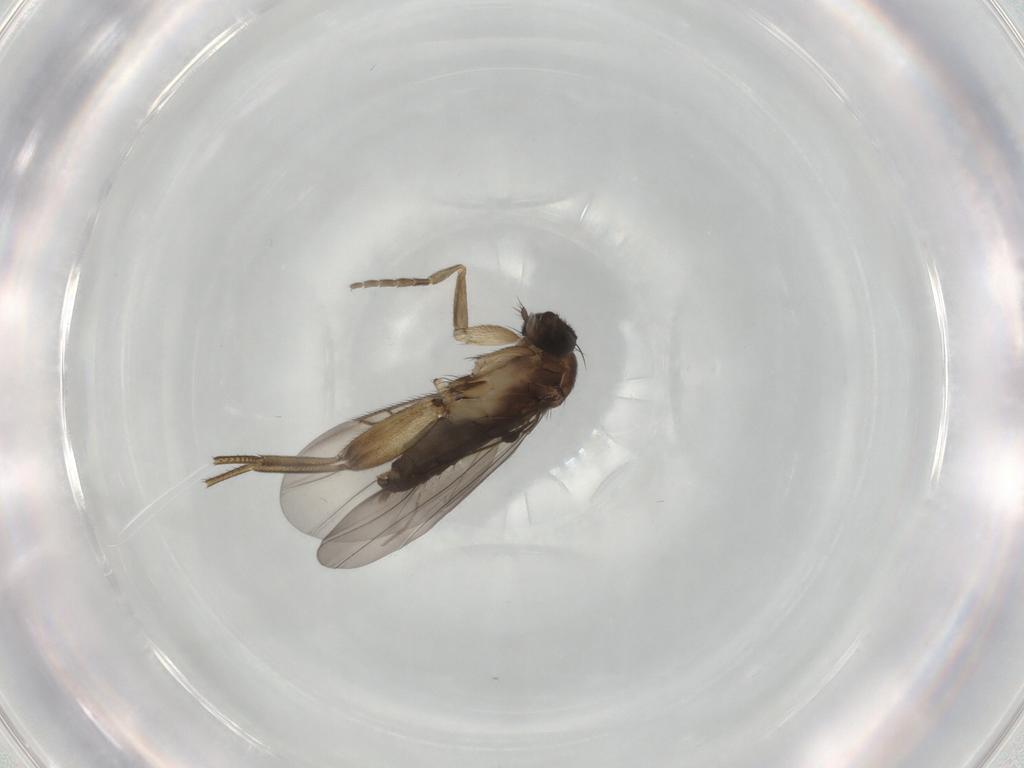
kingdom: Animalia
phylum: Arthropoda
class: Insecta
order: Diptera
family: Phoridae
